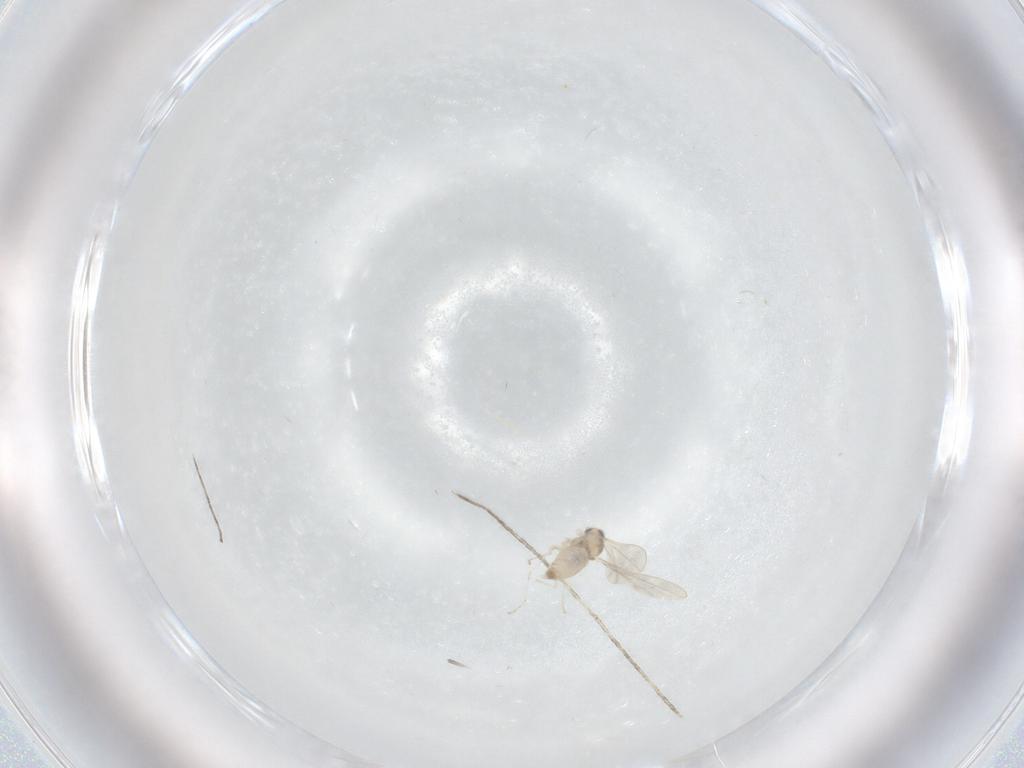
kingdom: Animalia
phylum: Arthropoda
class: Insecta
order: Diptera
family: Cecidomyiidae
